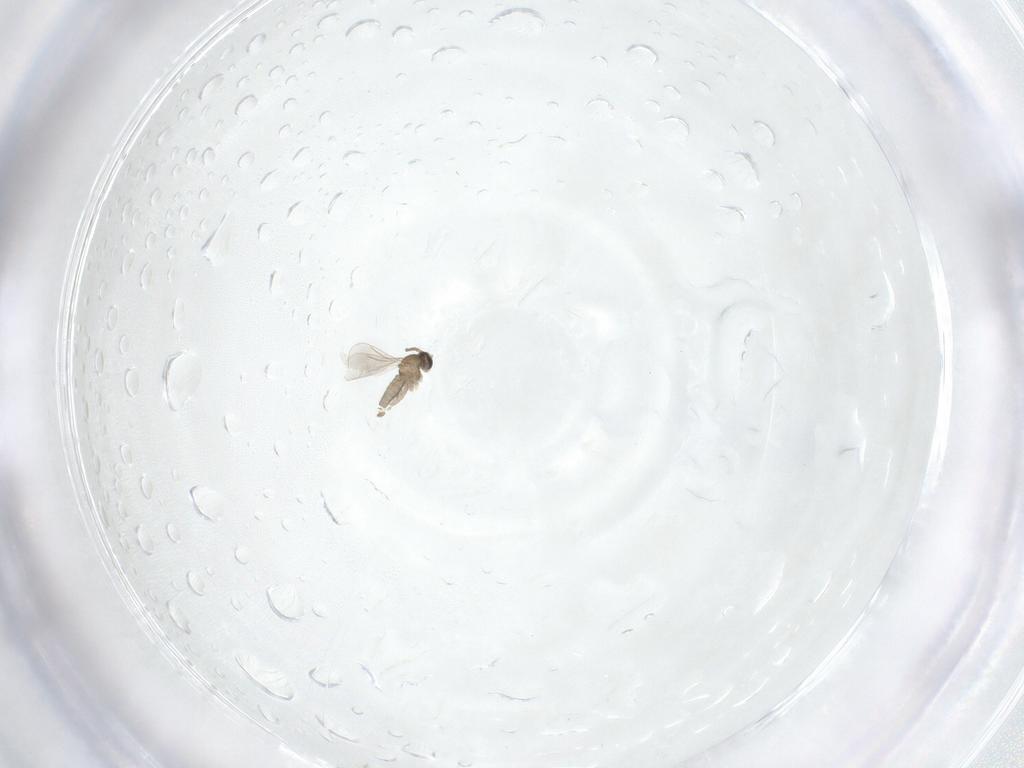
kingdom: Animalia
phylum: Arthropoda
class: Insecta
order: Diptera
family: Cecidomyiidae
